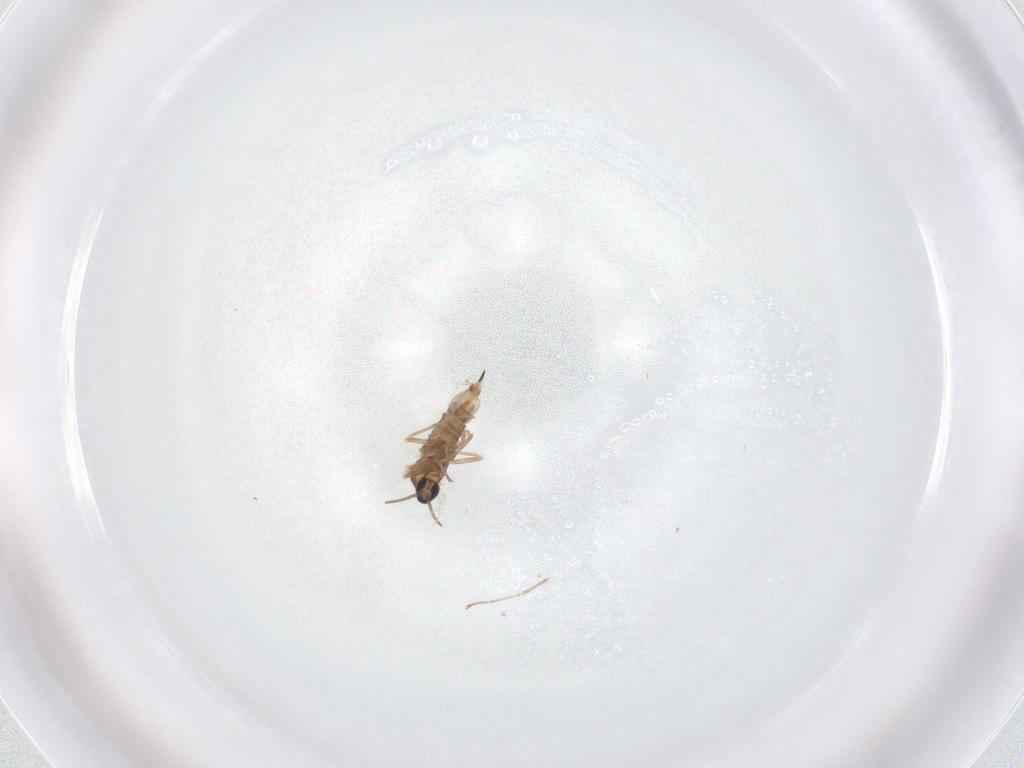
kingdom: Animalia
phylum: Arthropoda
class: Insecta
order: Diptera
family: Cecidomyiidae
